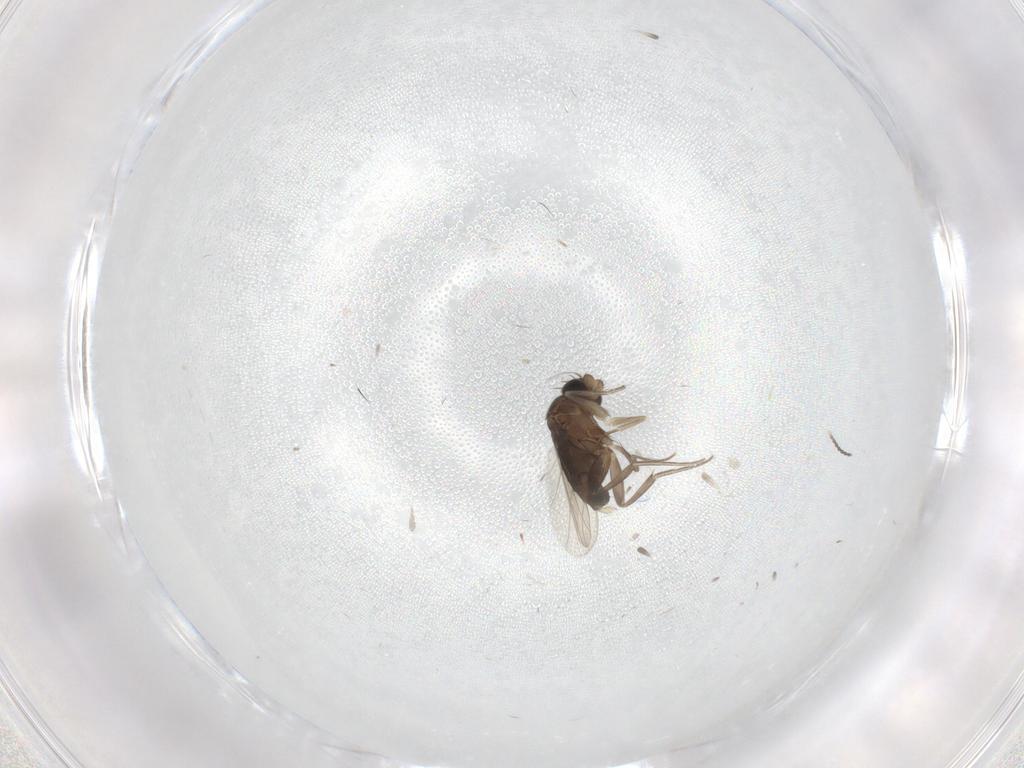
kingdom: Animalia
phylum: Arthropoda
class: Insecta
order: Diptera
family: Phoridae
